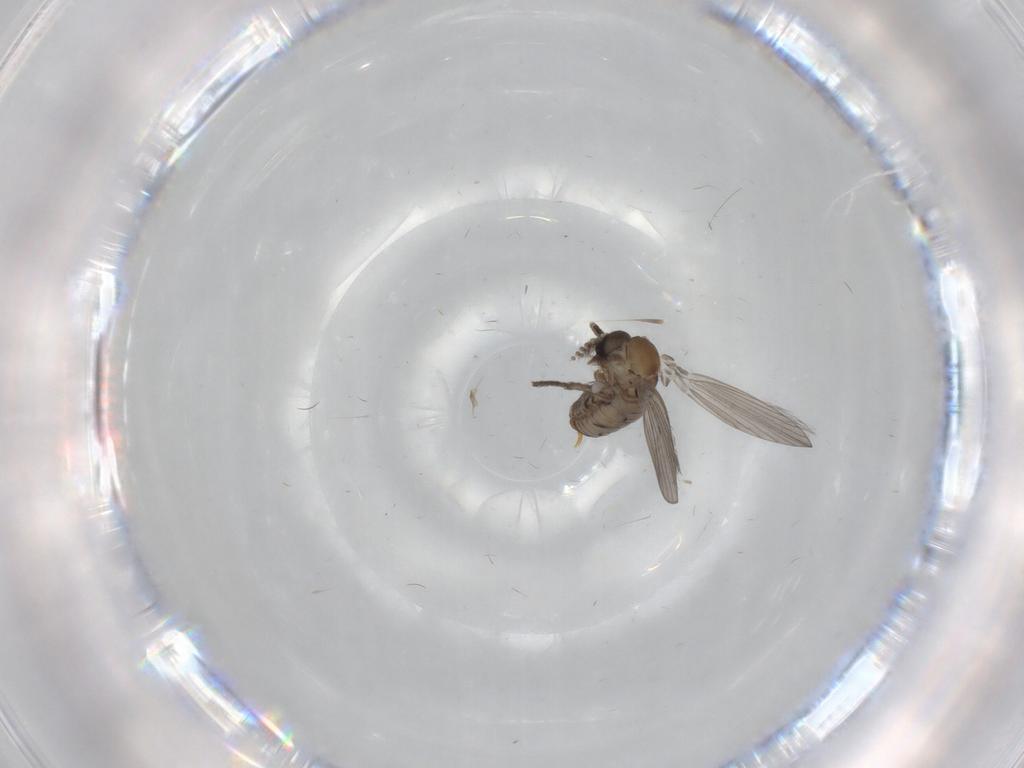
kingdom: Animalia
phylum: Arthropoda
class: Insecta
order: Diptera
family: Psychodidae
